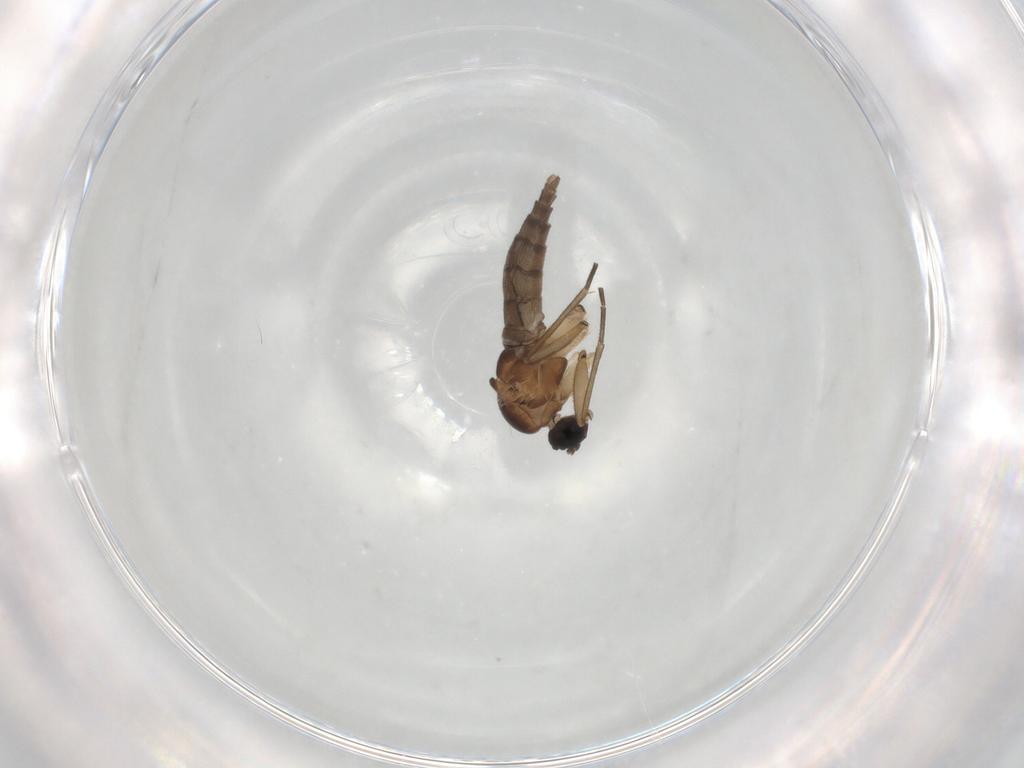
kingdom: Animalia
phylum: Arthropoda
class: Insecta
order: Diptera
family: Sciaridae
